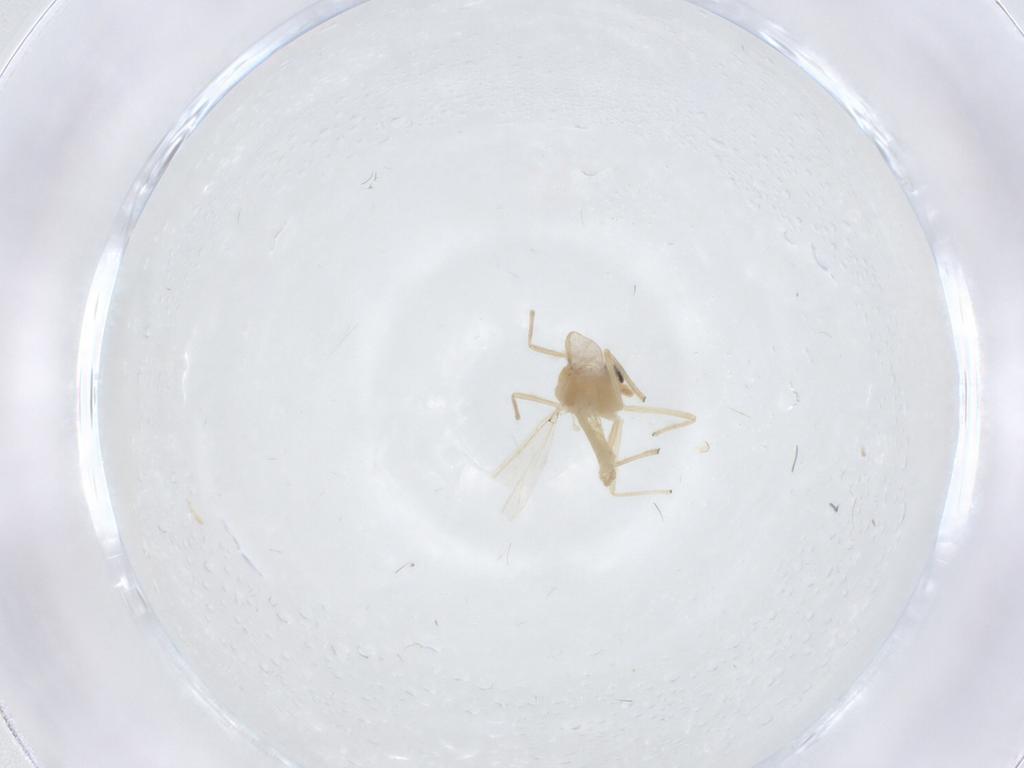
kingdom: Animalia
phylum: Arthropoda
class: Insecta
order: Diptera
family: Chironomidae
